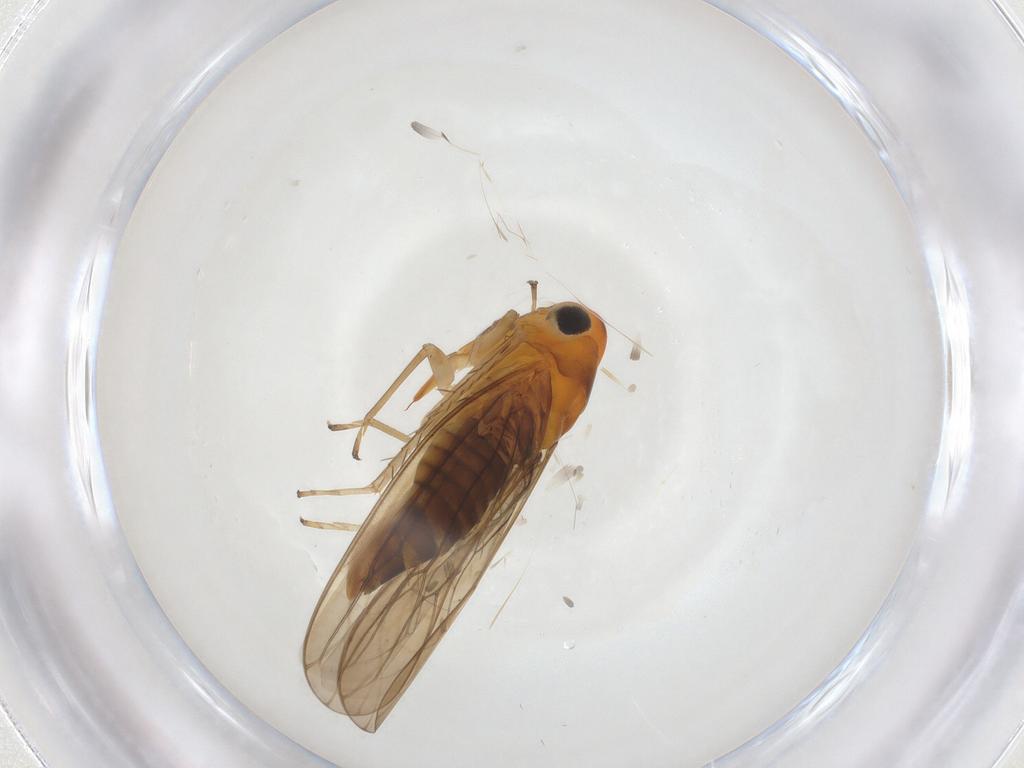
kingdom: Animalia
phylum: Arthropoda
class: Insecta
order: Hemiptera
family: Cicadellidae
